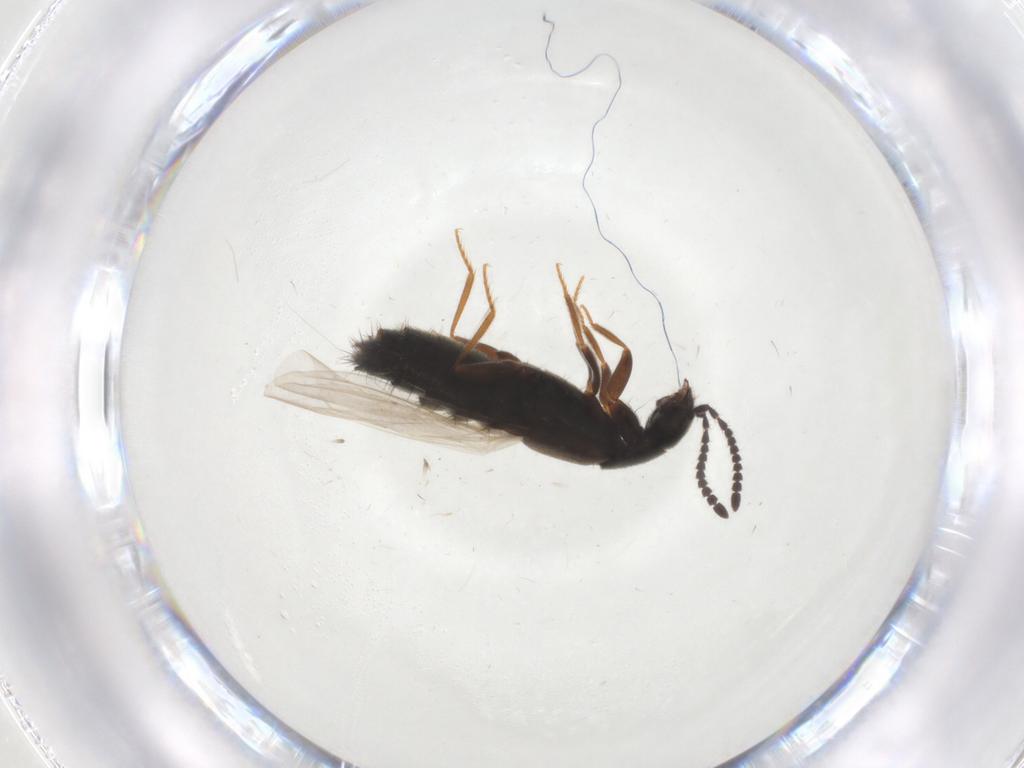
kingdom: Animalia
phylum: Arthropoda
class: Insecta
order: Coleoptera
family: Staphylinidae
